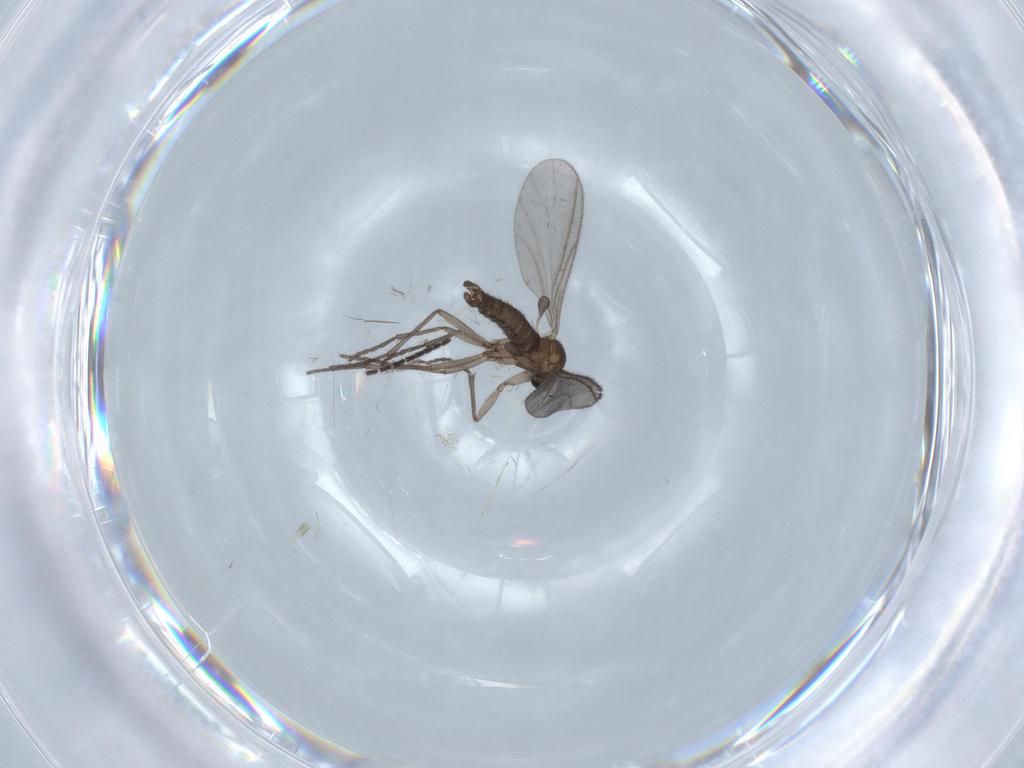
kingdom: Animalia
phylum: Arthropoda
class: Insecta
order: Diptera
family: Sciaridae
